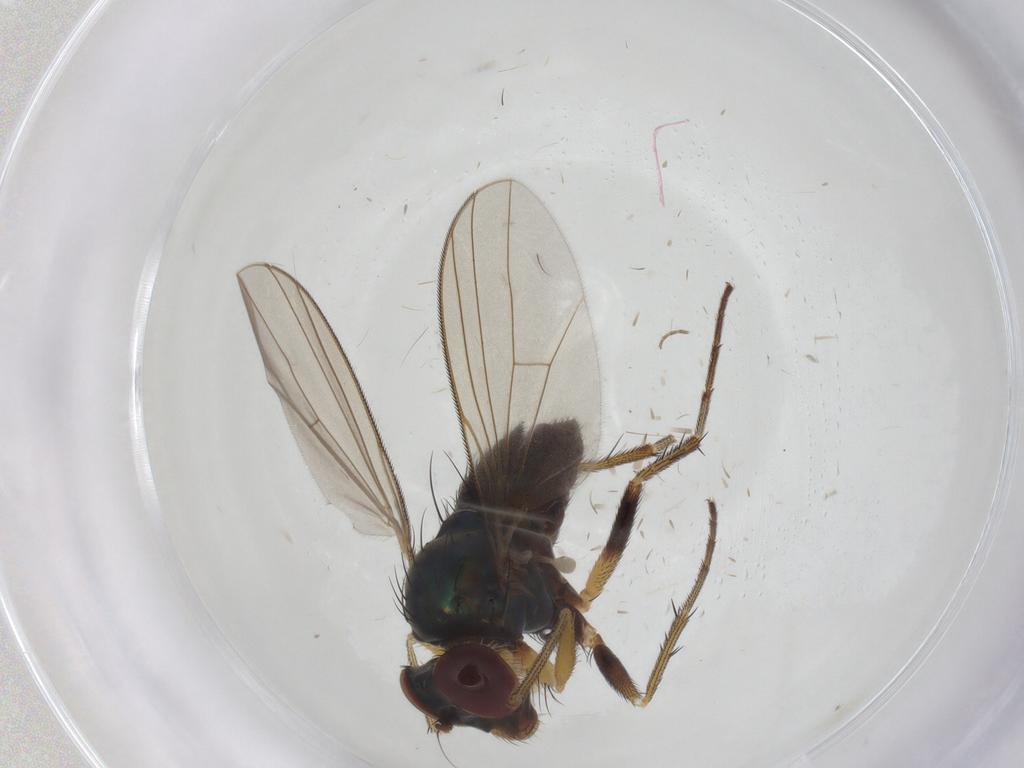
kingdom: Animalia
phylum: Arthropoda
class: Insecta
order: Diptera
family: Dolichopodidae
